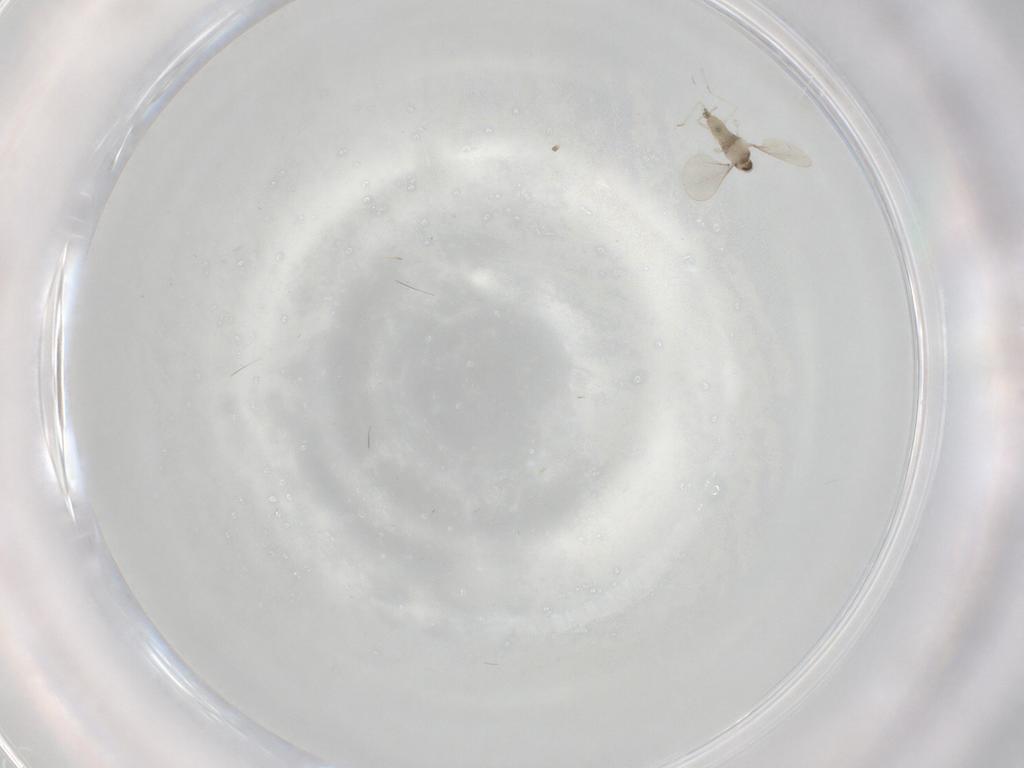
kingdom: Animalia
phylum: Arthropoda
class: Insecta
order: Diptera
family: Cecidomyiidae
